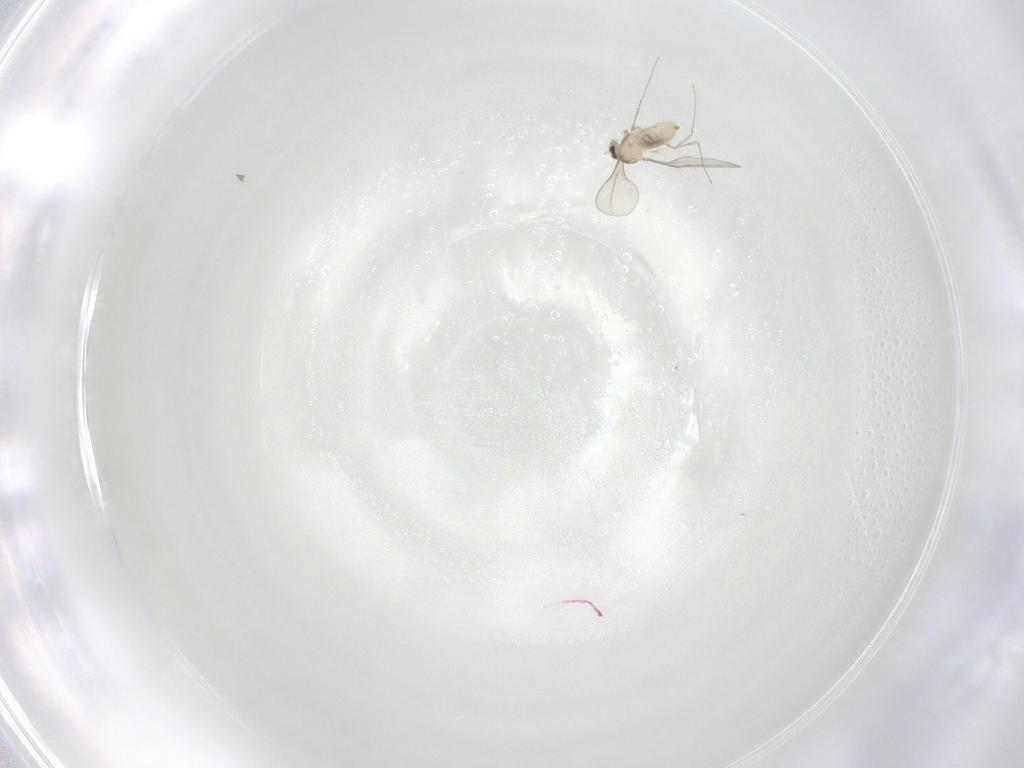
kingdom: Animalia
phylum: Arthropoda
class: Insecta
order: Diptera
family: Cecidomyiidae
